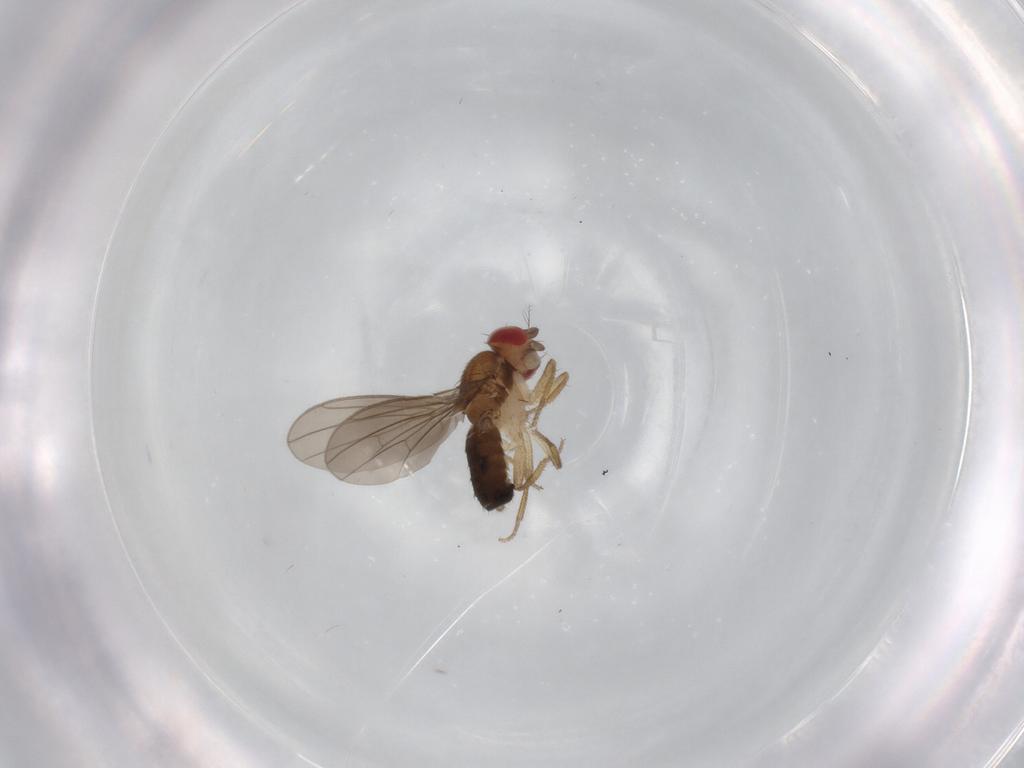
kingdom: Animalia
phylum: Arthropoda
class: Insecta
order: Diptera
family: Drosophilidae
